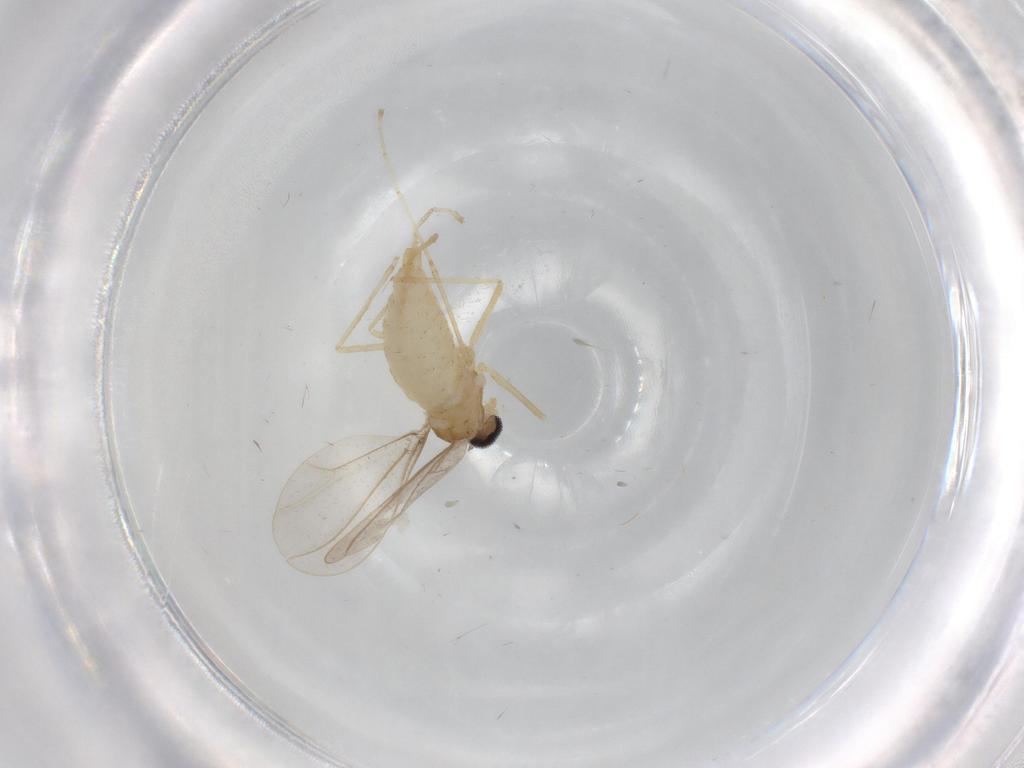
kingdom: Animalia
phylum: Arthropoda
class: Insecta
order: Diptera
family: Cecidomyiidae
